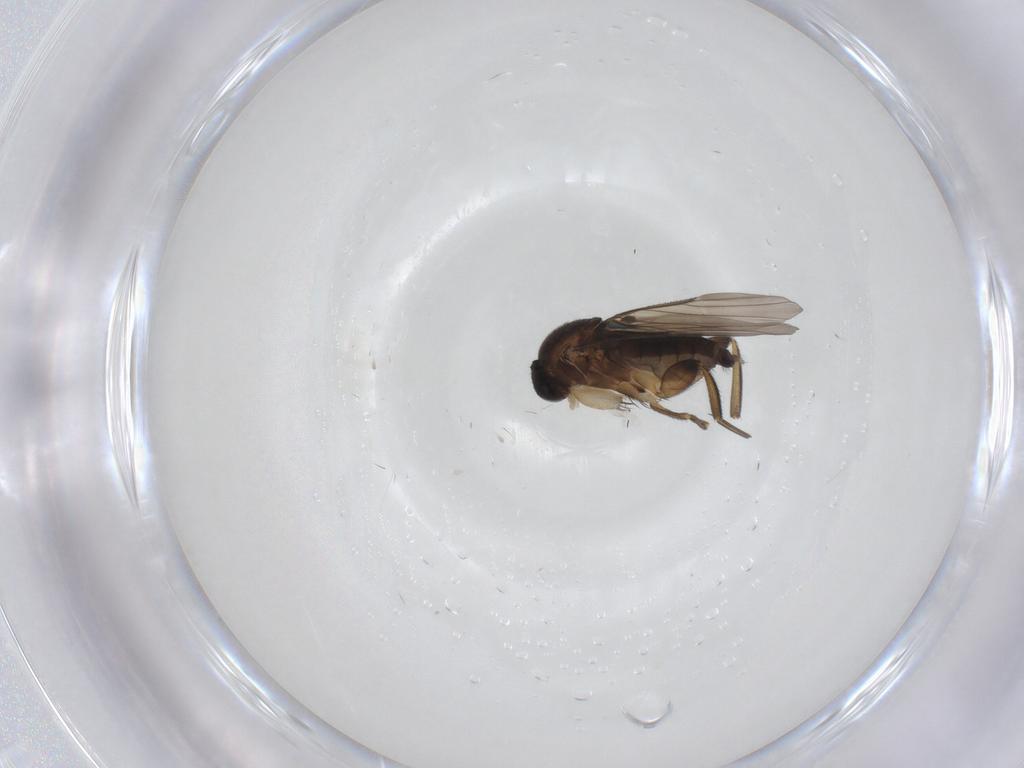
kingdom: Animalia
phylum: Arthropoda
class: Insecta
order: Diptera
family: Phoridae
